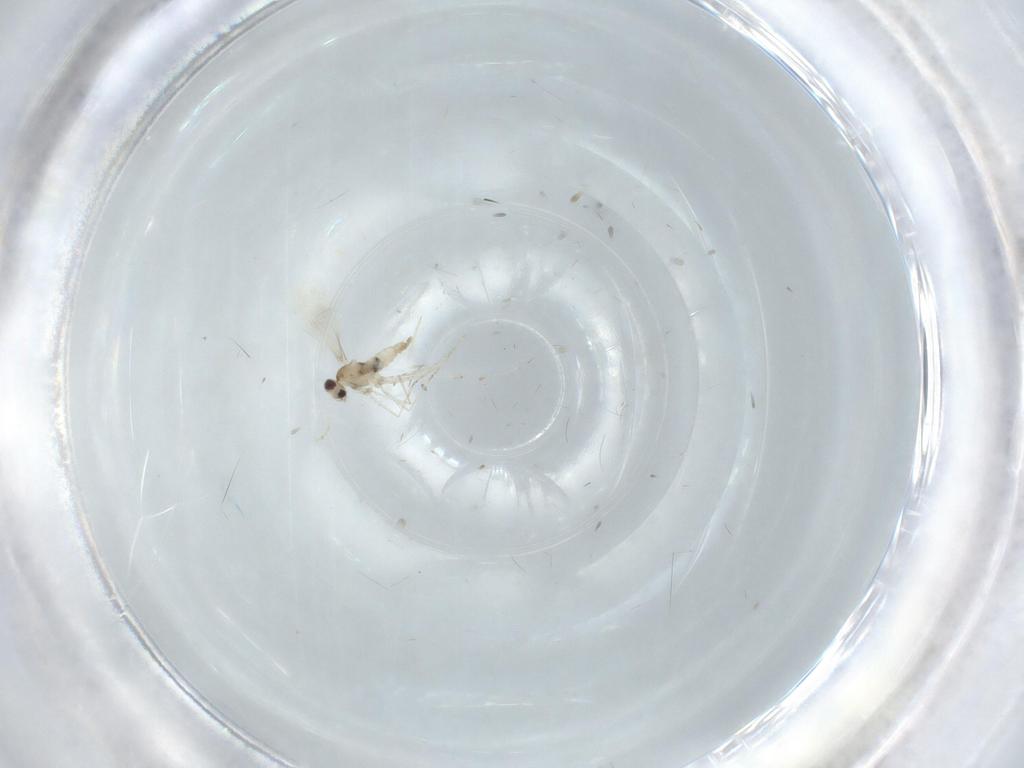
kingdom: Animalia
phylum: Arthropoda
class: Insecta
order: Diptera
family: Cecidomyiidae
